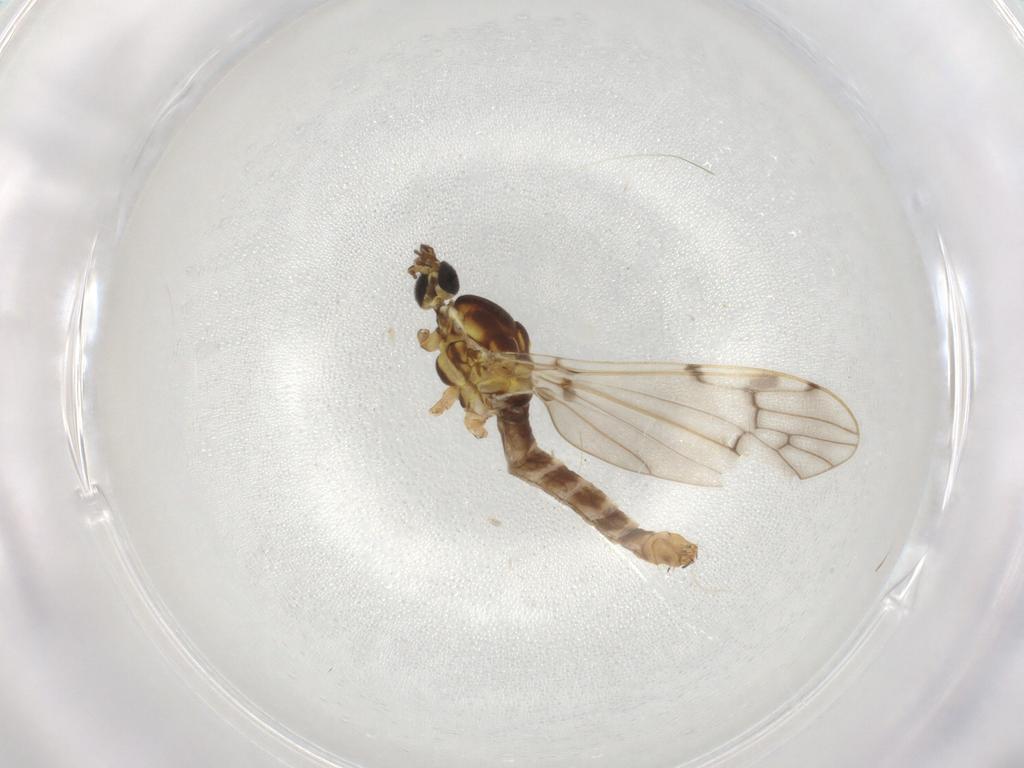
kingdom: Animalia
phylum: Arthropoda
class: Insecta
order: Diptera
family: Limoniidae
